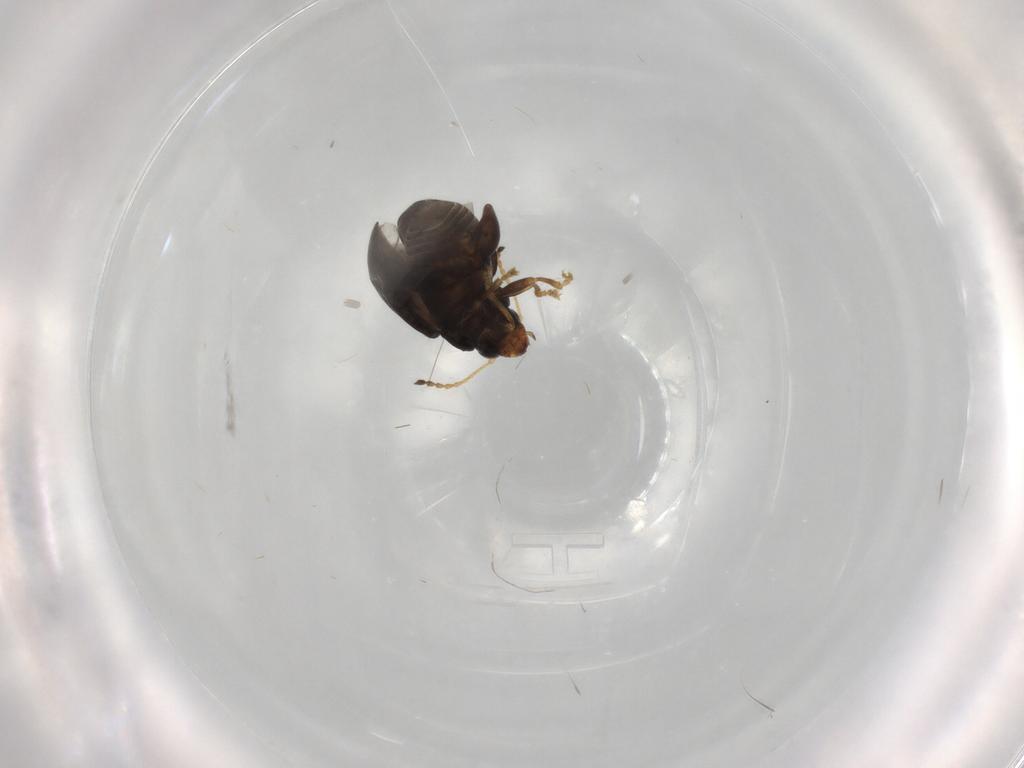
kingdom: Animalia
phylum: Arthropoda
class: Insecta
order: Coleoptera
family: Chrysomelidae
